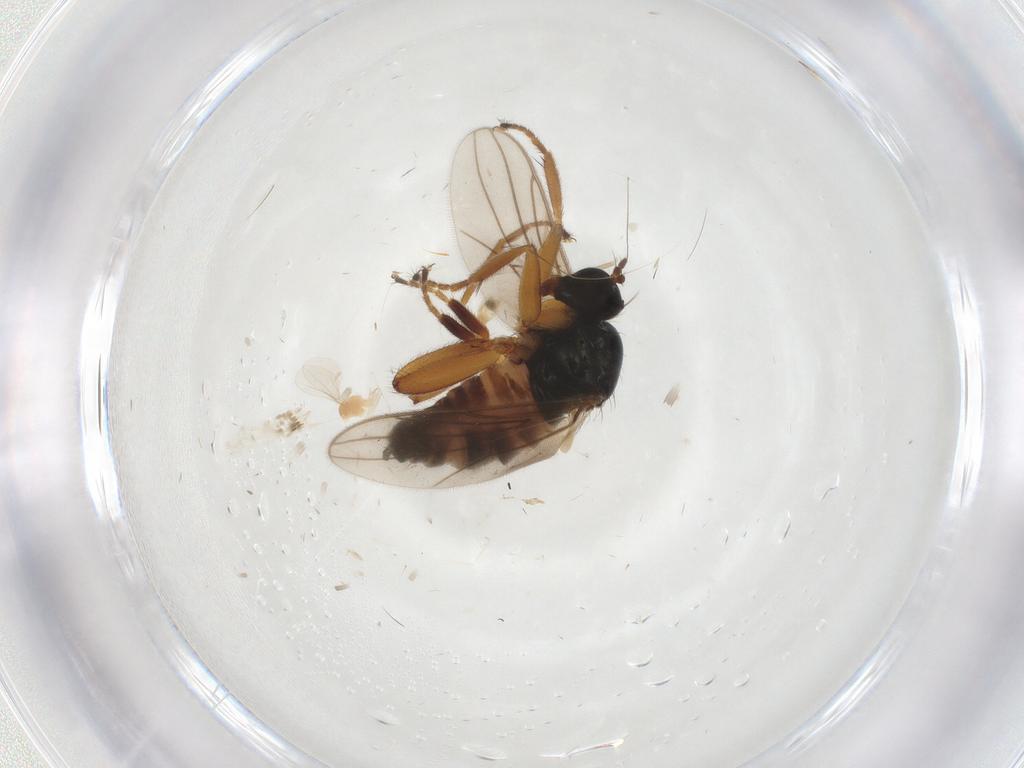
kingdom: Animalia
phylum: Arthropoda
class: Insecta
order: Diptera
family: Hybotidae
